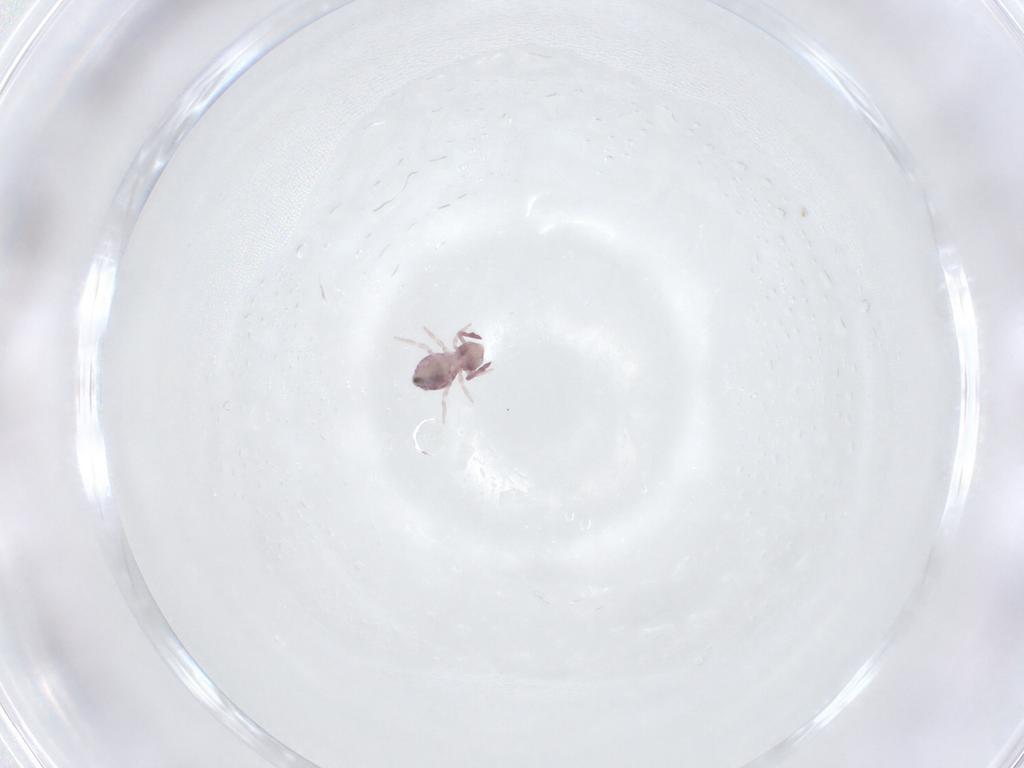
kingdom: Animalia
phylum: Arthropoda
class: Collembola
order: Symphypleona
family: Dicyrtomidae
